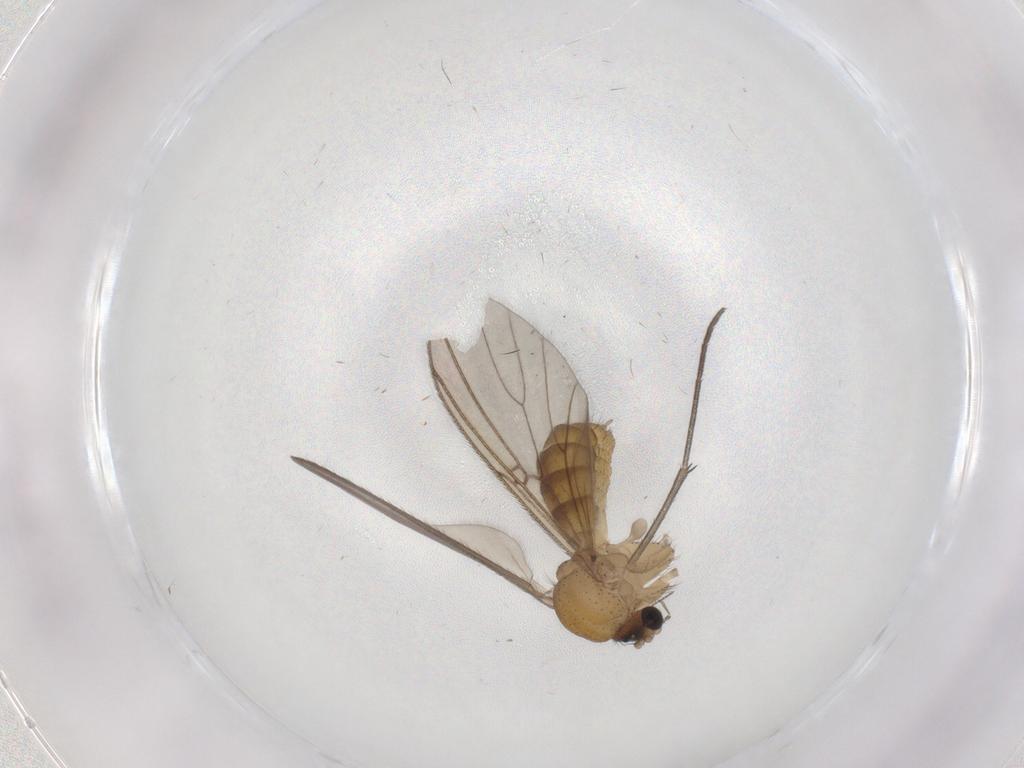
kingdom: Animalia
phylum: Arthropoda
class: Insecta
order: Diptera
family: Mycetophilidae
